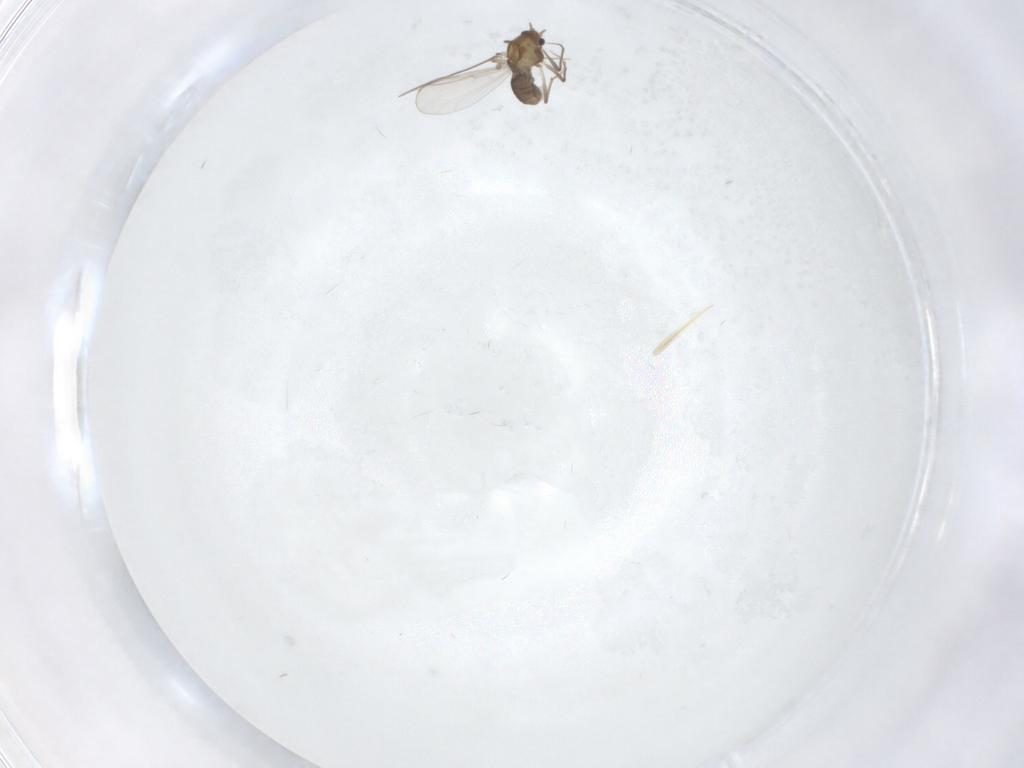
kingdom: Animalia
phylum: Arthropoda
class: Insecta
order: Diptera
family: Chironomidae
